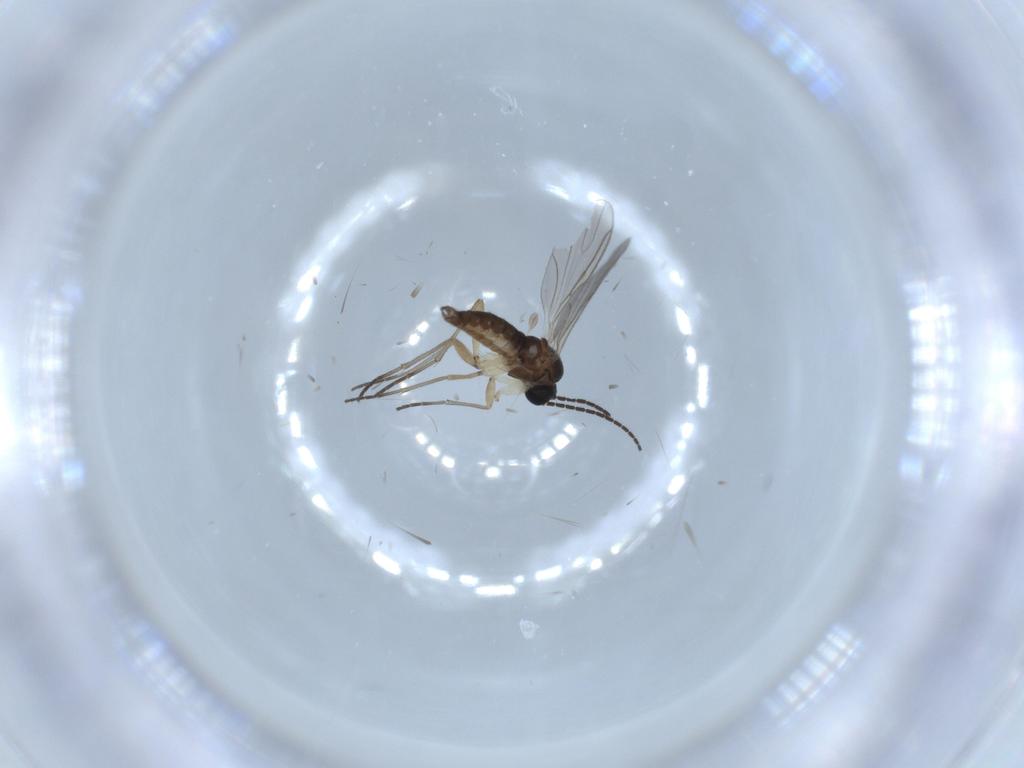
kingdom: Animalia
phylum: Arthropoda
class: Insecta
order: Diptera
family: Sciaridae
